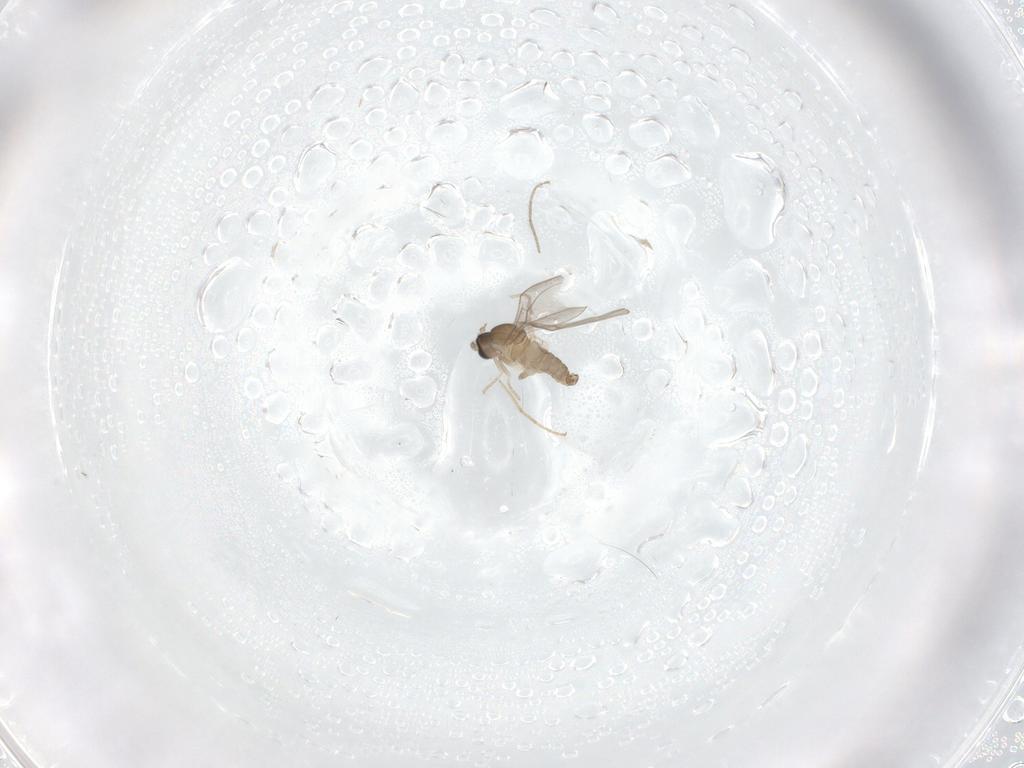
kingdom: Animalia
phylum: Arthropoda
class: Insecta
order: Diptera
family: Cecidomyiidae
